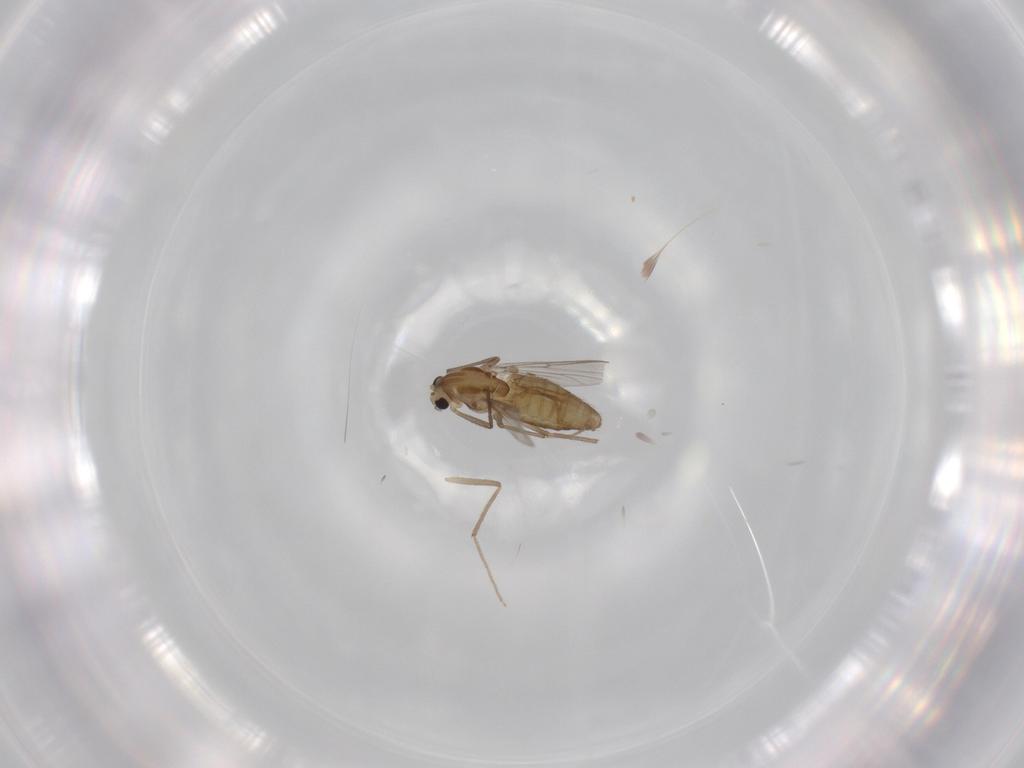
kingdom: Animalia
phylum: Arthropoda
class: Insecta
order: Diptera
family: Chironomidae
